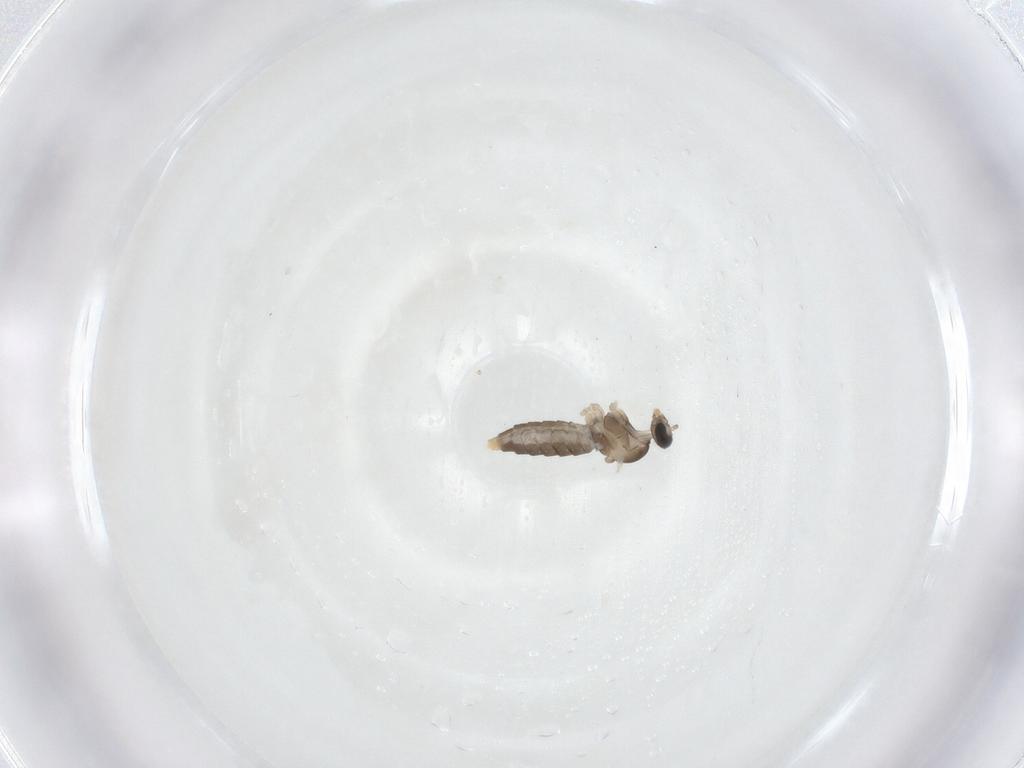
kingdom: Animalia
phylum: Arthropoda
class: Insecta
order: Diptera
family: Cecidomyiidae
